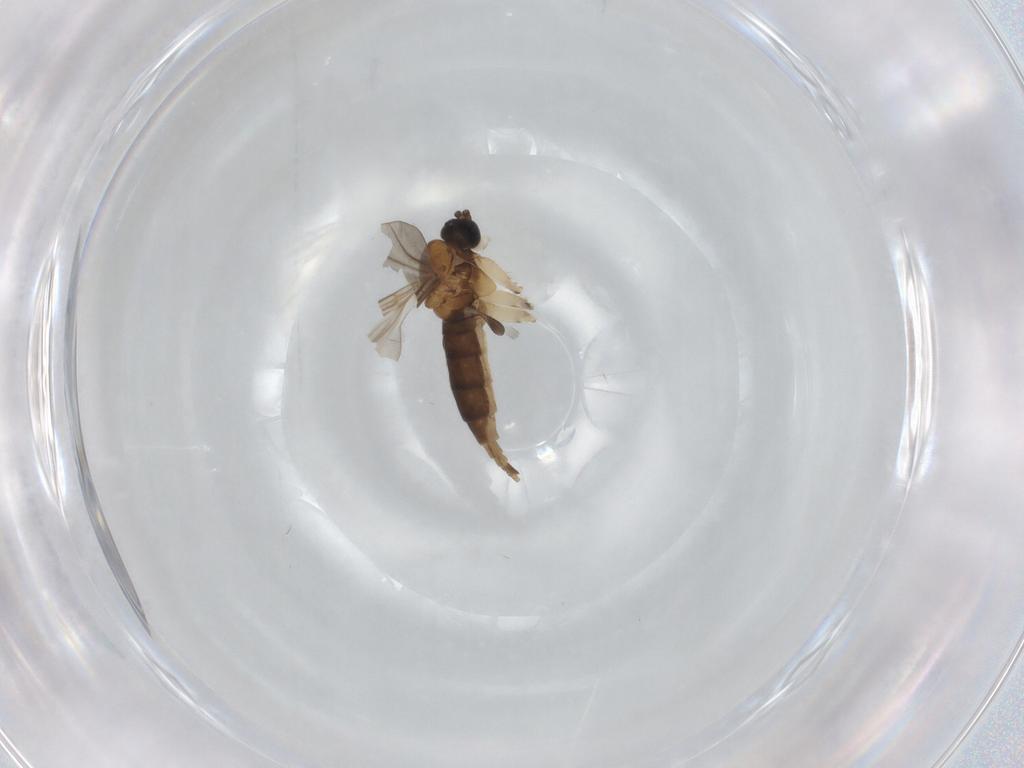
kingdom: Animalia
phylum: Arthropoda
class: Insecta
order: Diptera
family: Sciaridae
